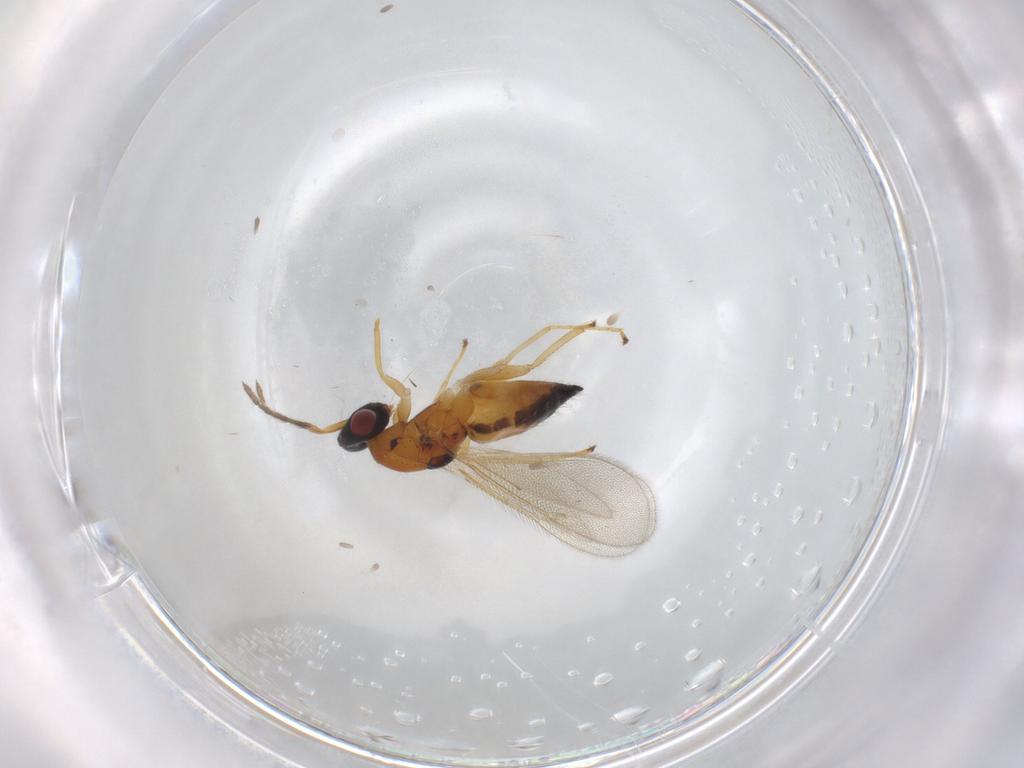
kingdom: Animalia
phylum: Arthropoda
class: Insecta
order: Hymenoptera
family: Eulophidae
